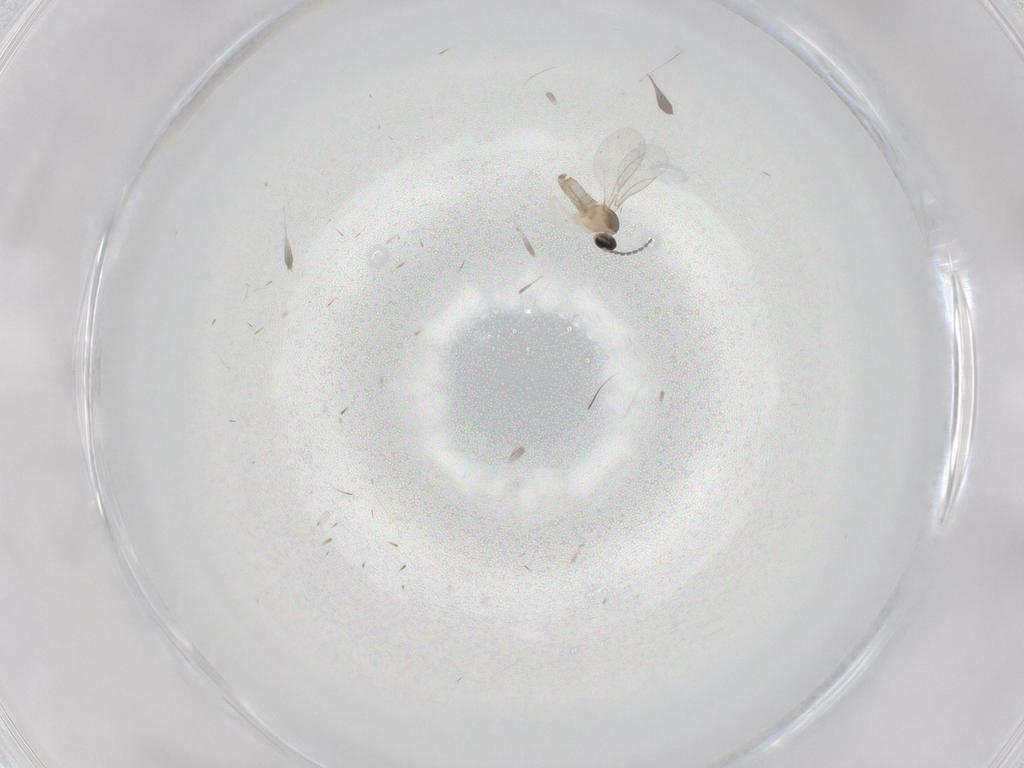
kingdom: Animalia
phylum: Arthropoda
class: Insecta
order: Diptera
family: Cecidomyiidae
